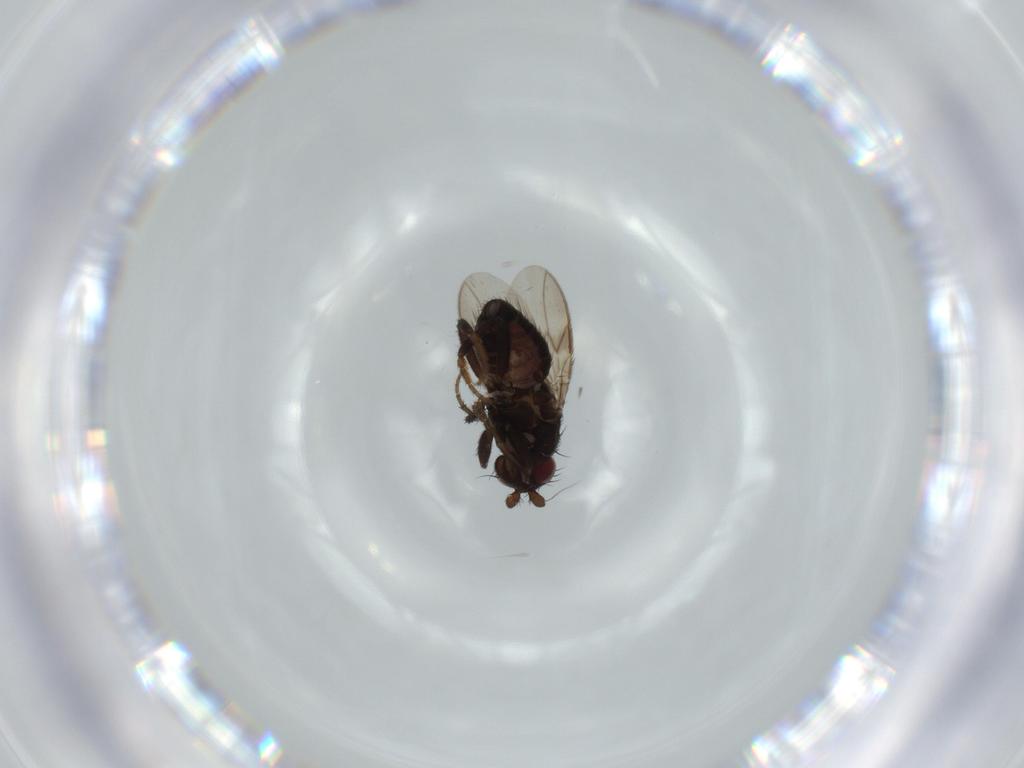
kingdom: Animalia
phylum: Arthropoda
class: Insecta
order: Diptera
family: Sphaeroceridae
